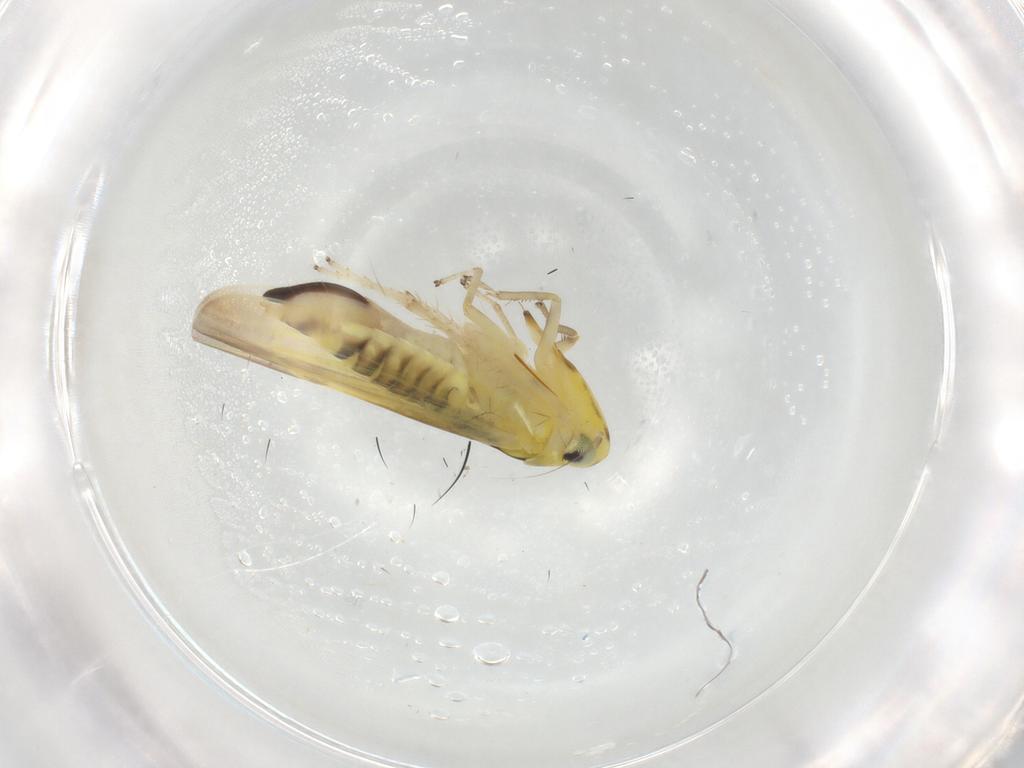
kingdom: Animalia
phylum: Arthropoda
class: Insecta
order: Hemiptera
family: Cicadellidae
